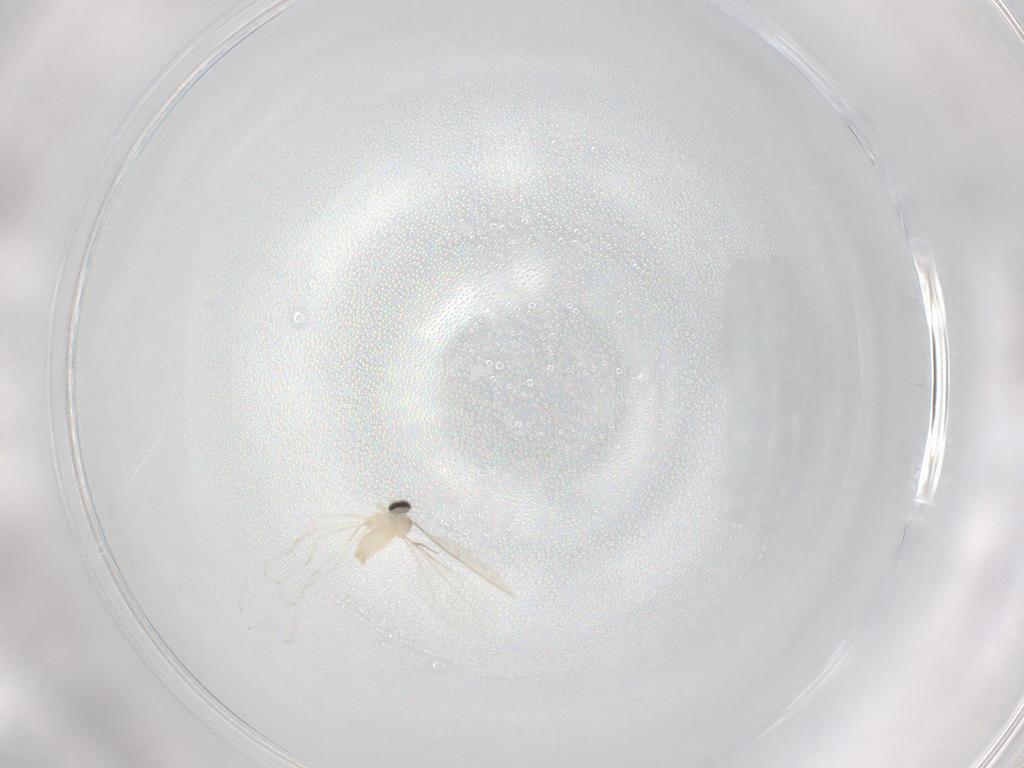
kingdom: Animalia
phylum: Arthropoda
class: Insecta
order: Diptera
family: Chironomidae
